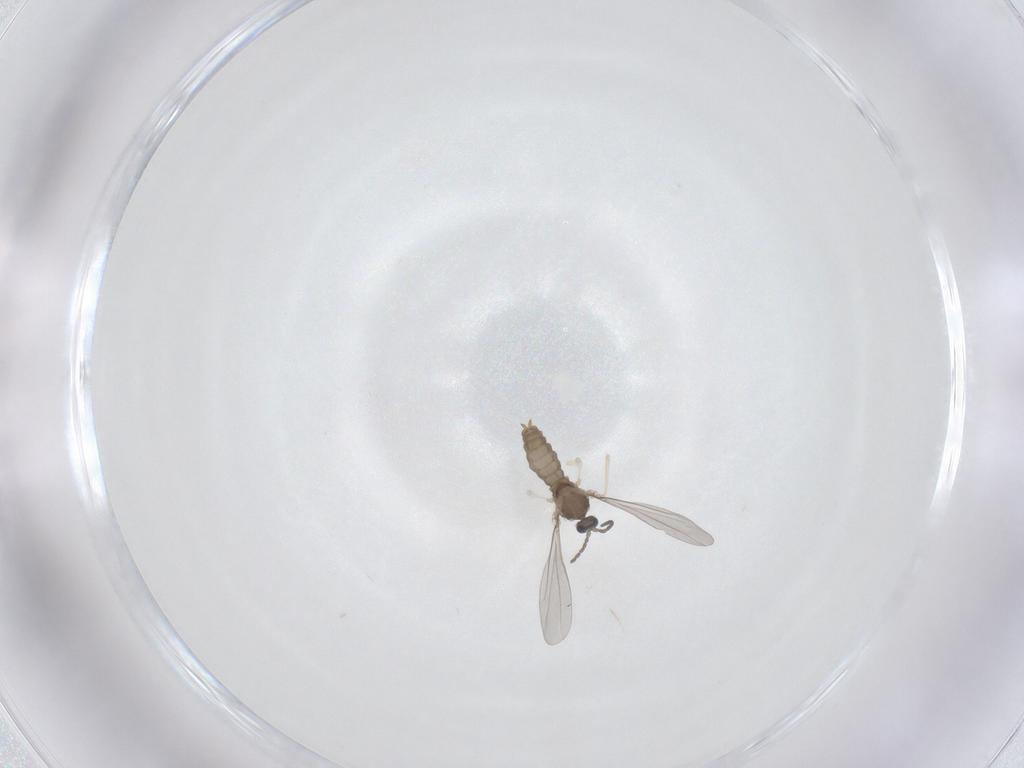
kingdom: Animalia
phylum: Arthropoda
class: Insecta
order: Diptera
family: Cecidomyiidae
